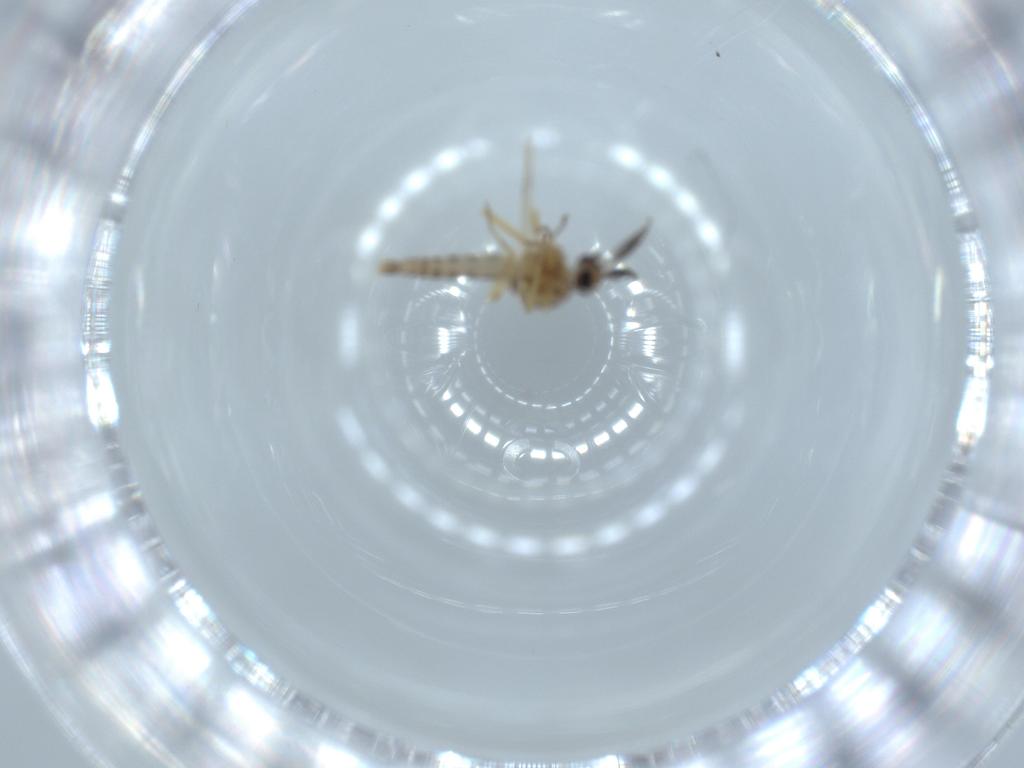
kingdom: Animalia
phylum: Arthropoda
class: Insecta
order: Diptera
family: Ceratopogonidae
